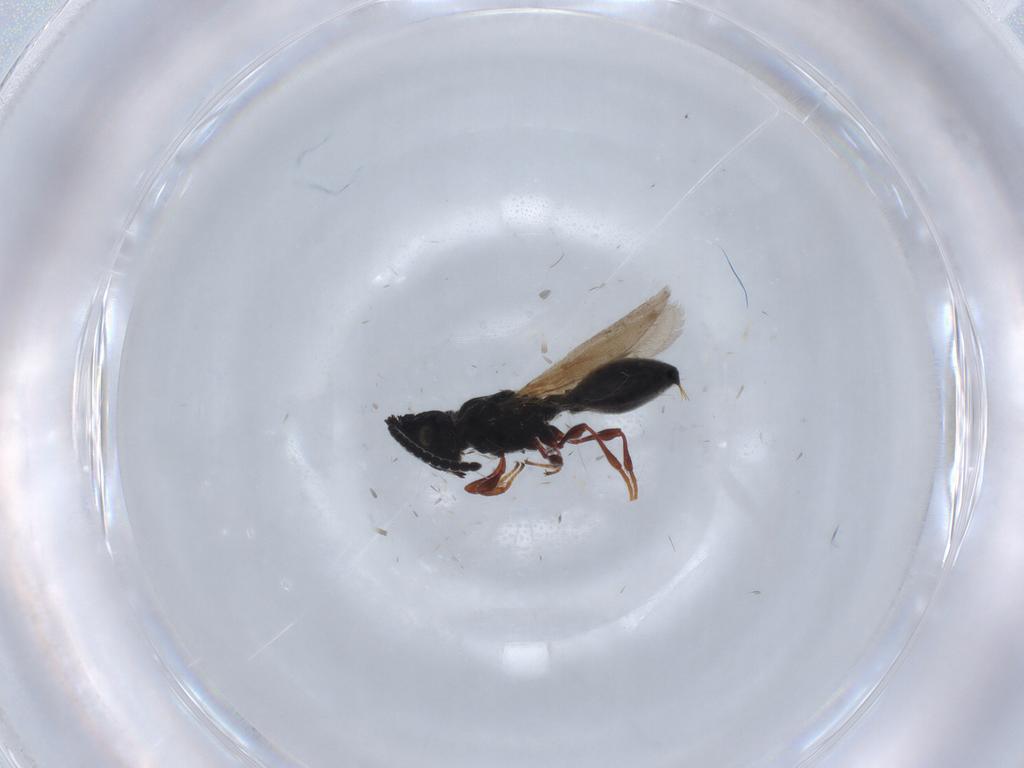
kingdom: Animalia
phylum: Arthropoda
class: Insecta
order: Hymenoptera
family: Diapriidae
